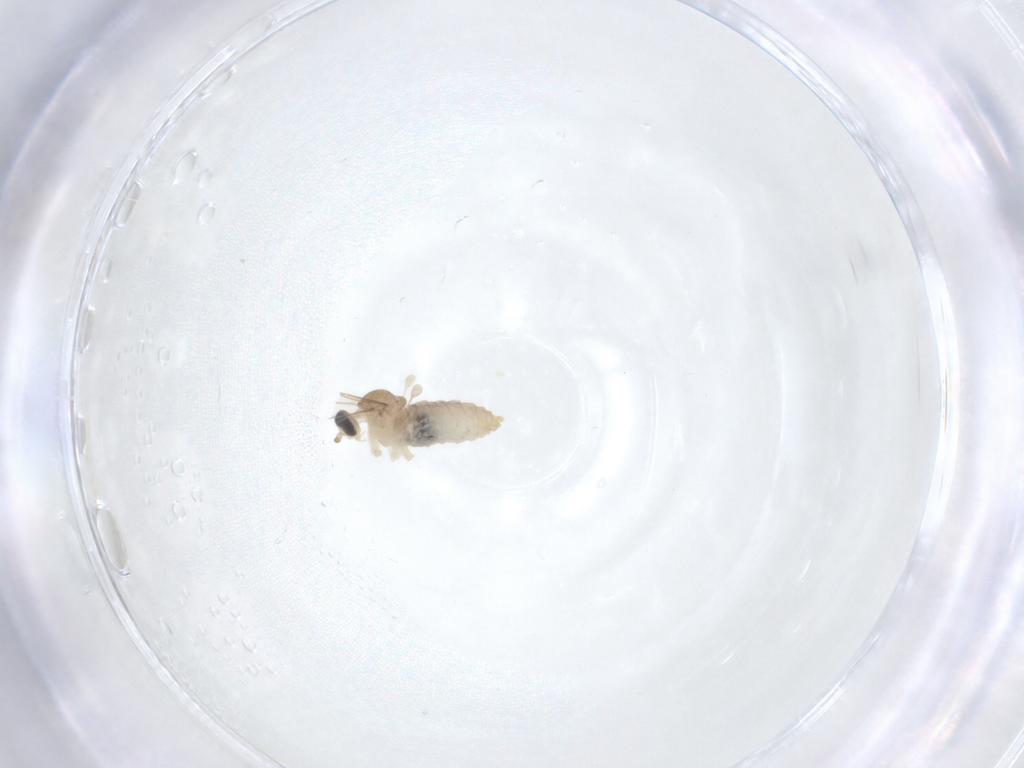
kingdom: Animalia
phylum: Arthropoda
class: Insecta
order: Diptera
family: Cecidomyiidae
